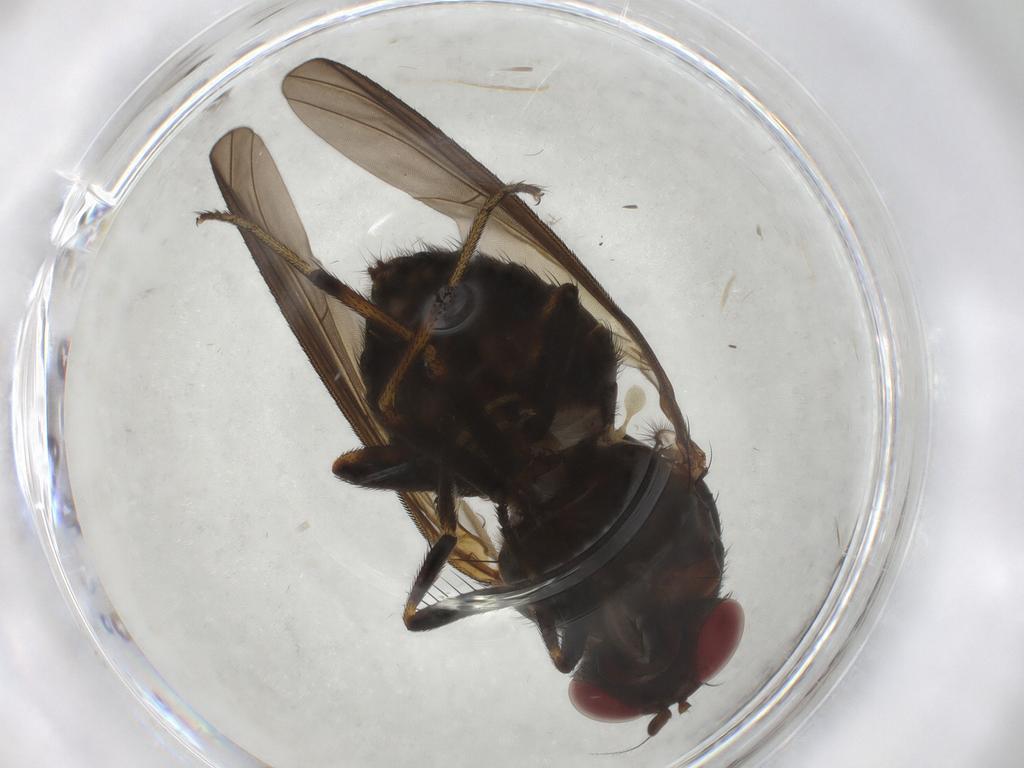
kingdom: Animalia
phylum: Arthropoda
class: Insecta
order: Diptera
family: Lauxaniidae
